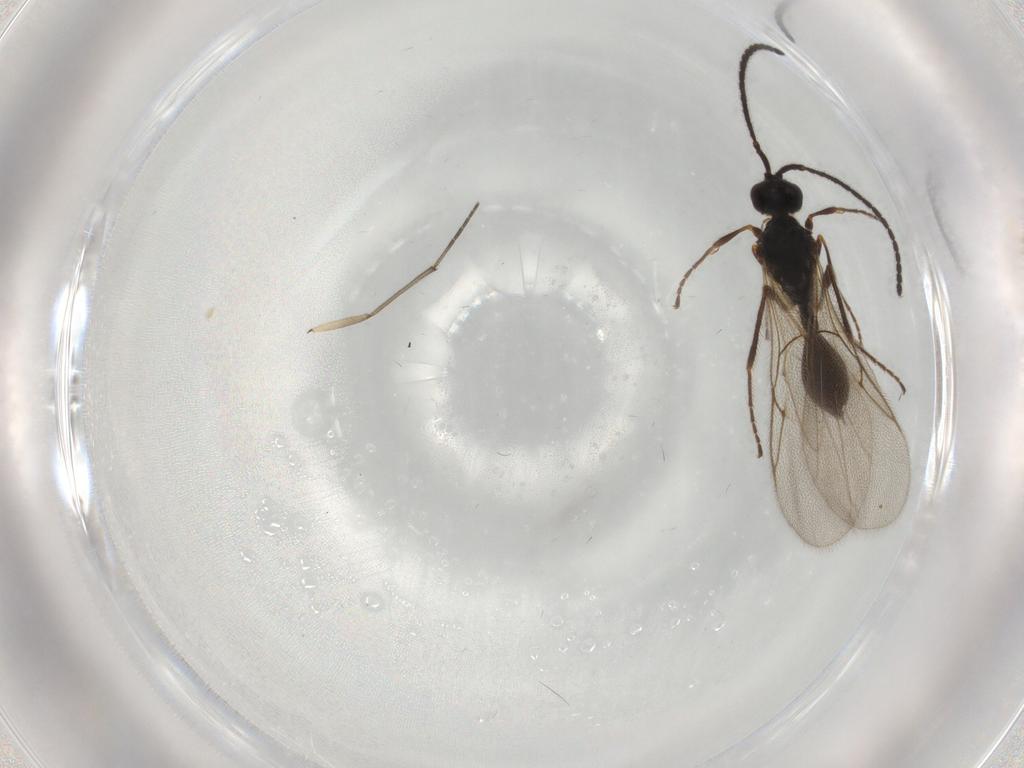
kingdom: Animalia
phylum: Arthropoda
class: Insecta
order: Hymenoptera
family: Diapriidae
